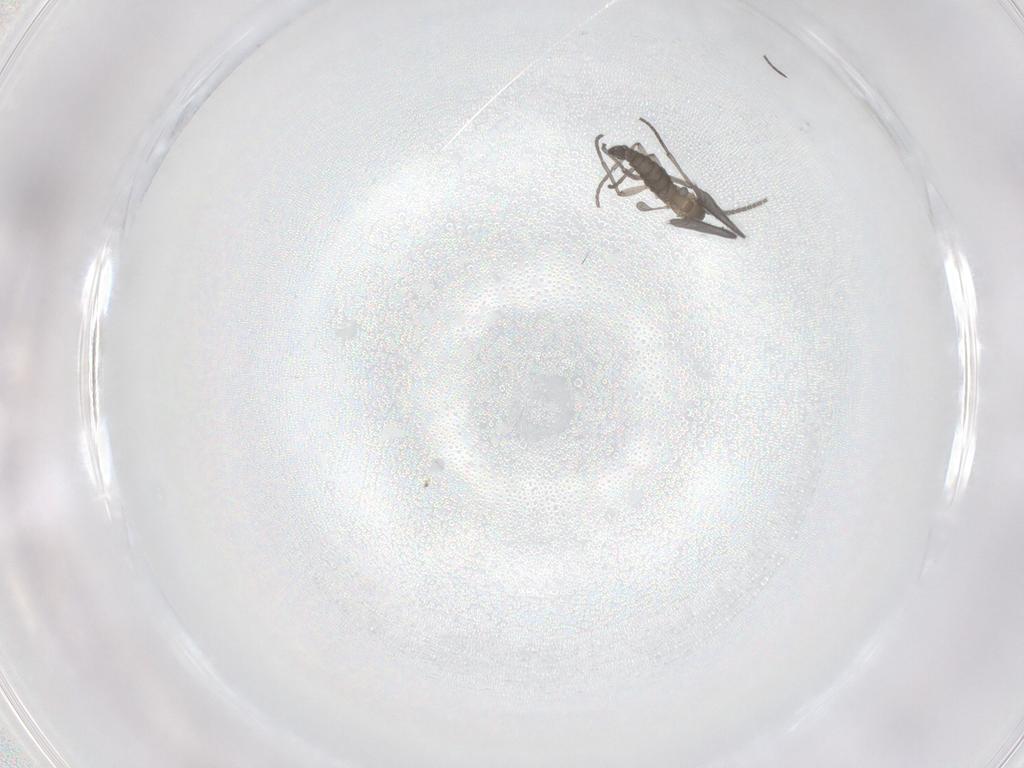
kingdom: Animalia
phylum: Arthropoda
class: Insecta
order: Diptera
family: Sciaridae
